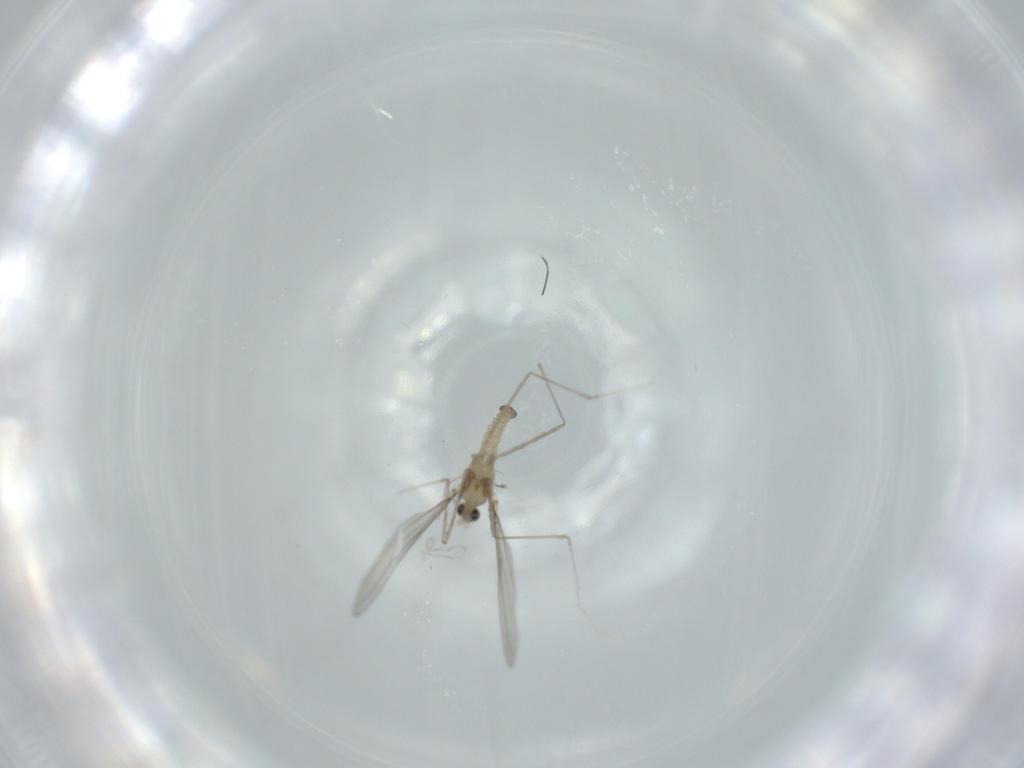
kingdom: Animalia
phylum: Arthropoda
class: Insecta
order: Diptera
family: Cecidomyiidae
